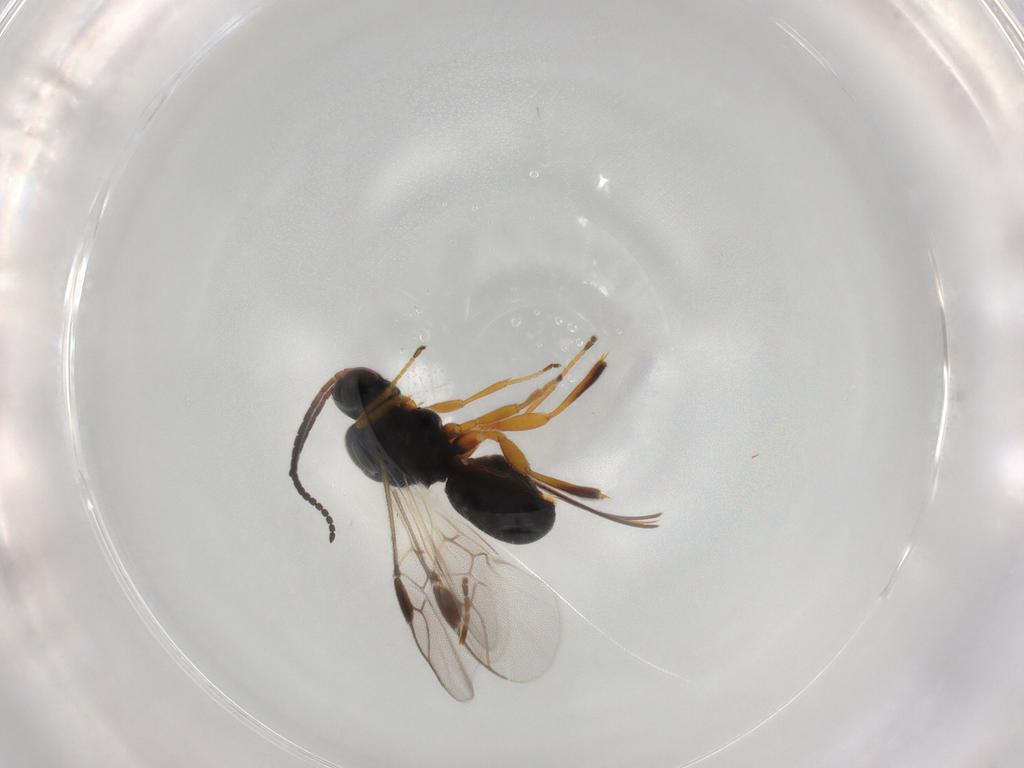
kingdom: Animalia
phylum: Arthropoda
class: Insecta
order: Hymenoptera
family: Braconidae
